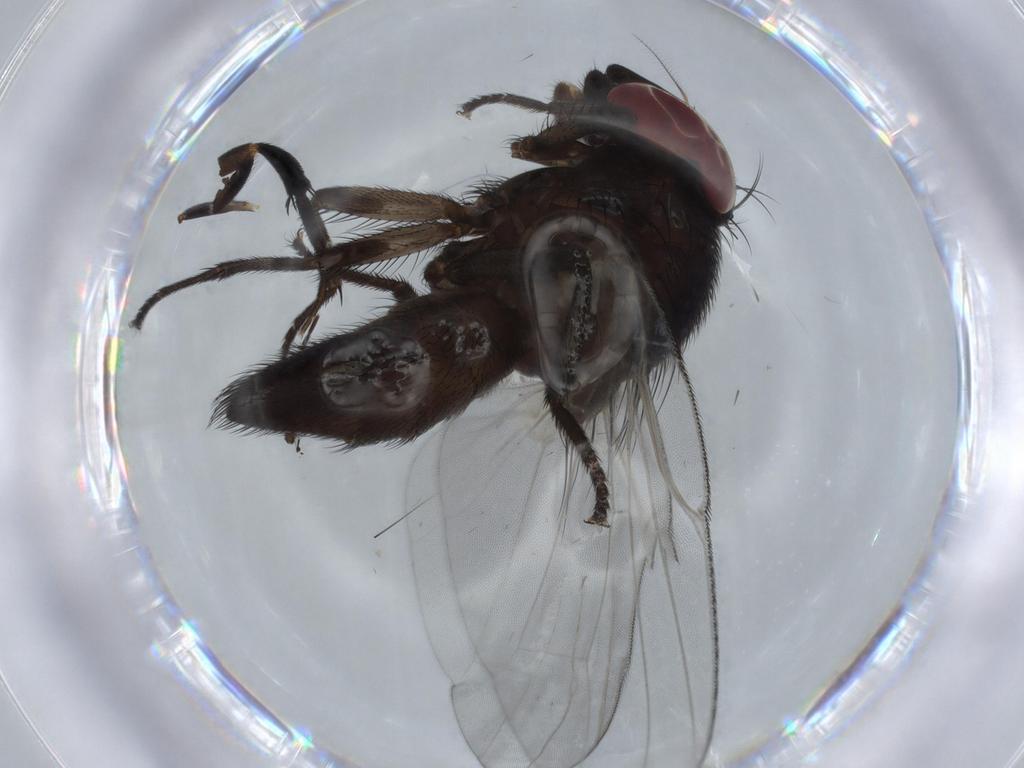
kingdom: Animalia
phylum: Arthropoda
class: Insecta
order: Diptera
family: Phoridae
